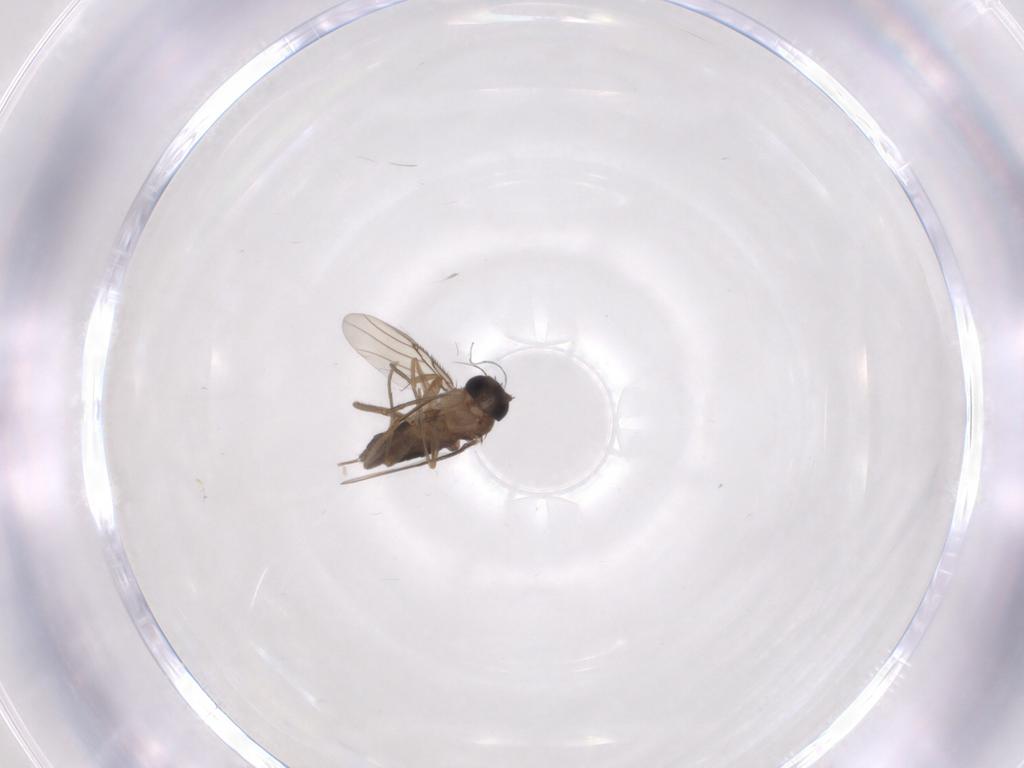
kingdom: Animalia
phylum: Arthropoda
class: Insecta
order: Diptera
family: Phoridae
